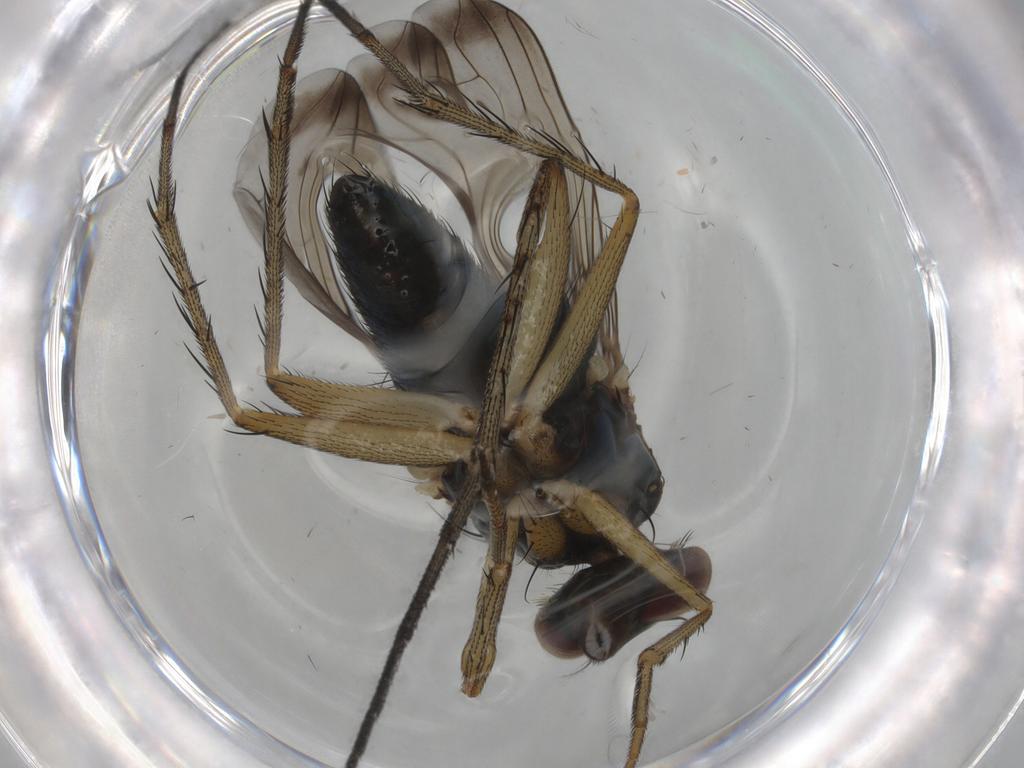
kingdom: Animalia
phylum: Arthropoda
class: Insecta
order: Diptera
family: Dolichopodidae
